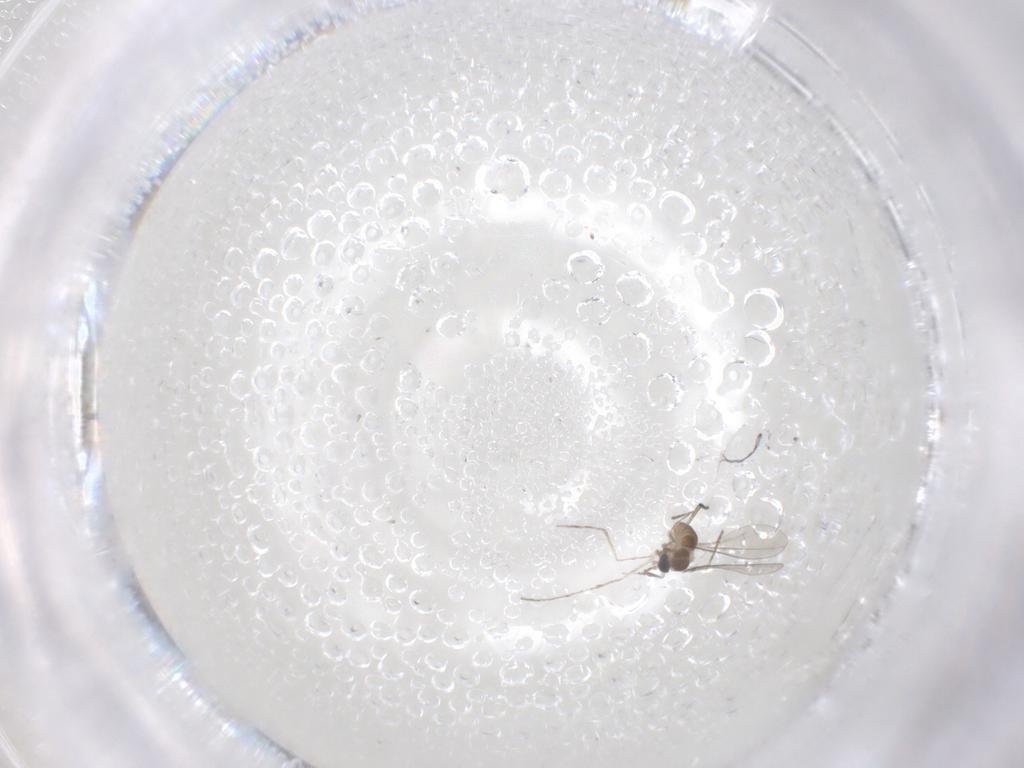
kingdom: Animalia
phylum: Arthropoda
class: Insecta
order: Diptera
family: Cecidomyiidae
